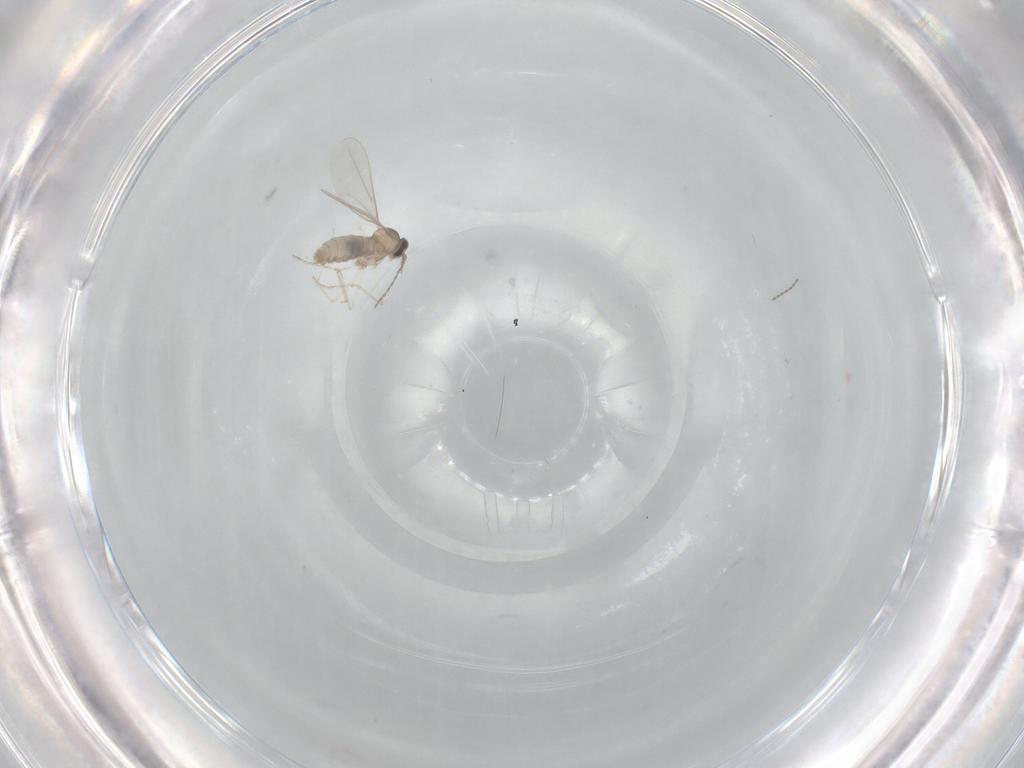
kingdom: Animalia
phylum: Arthropoda
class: Insecta
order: Diptera
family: Cecidomyiidae
